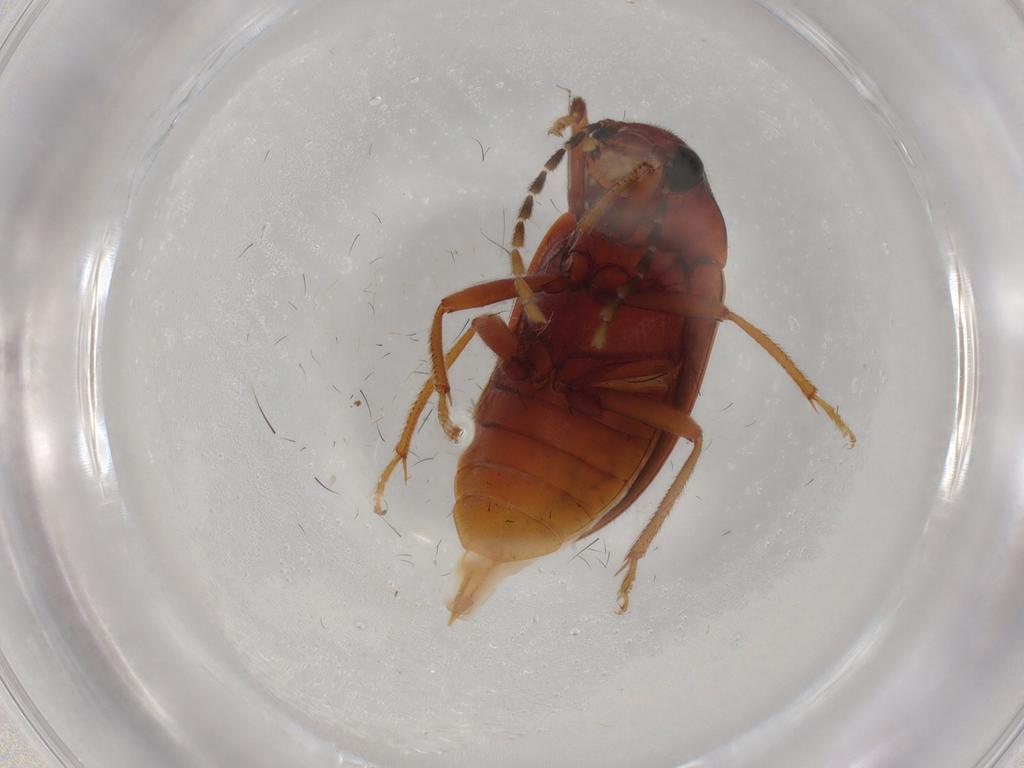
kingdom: Animalia
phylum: Arthropoda
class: Insecta
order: Coleoptera
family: Ptilodactylidae
